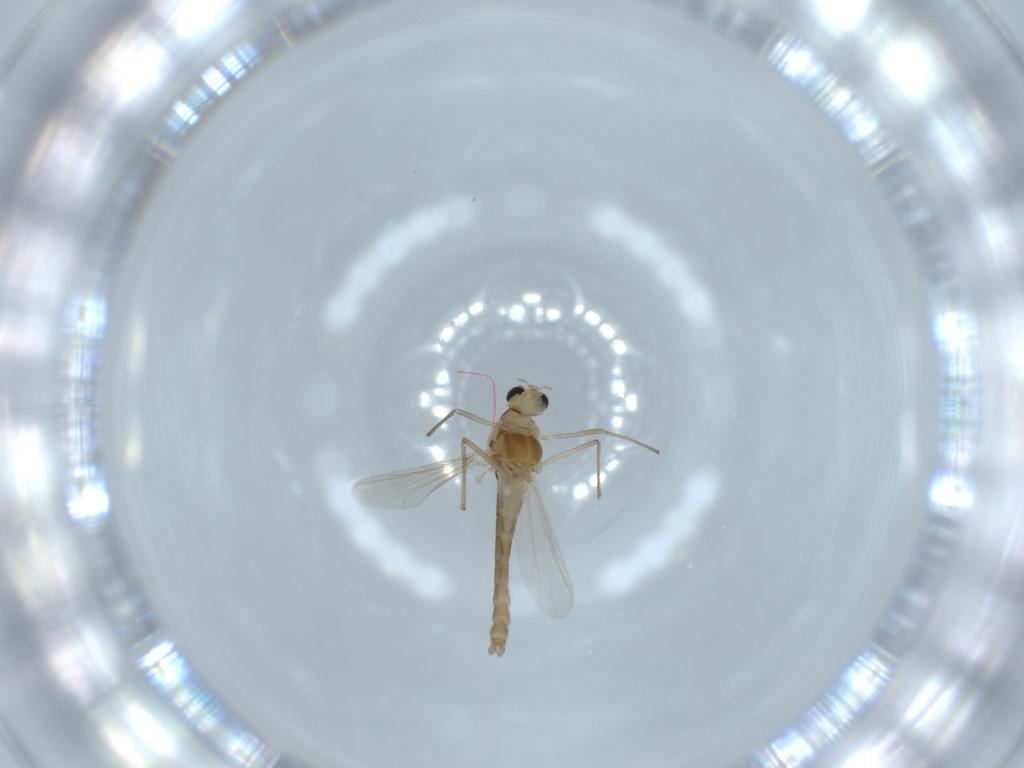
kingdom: Animalia
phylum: Arthropoda
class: Insecta
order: Diptera
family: Chironomidae
